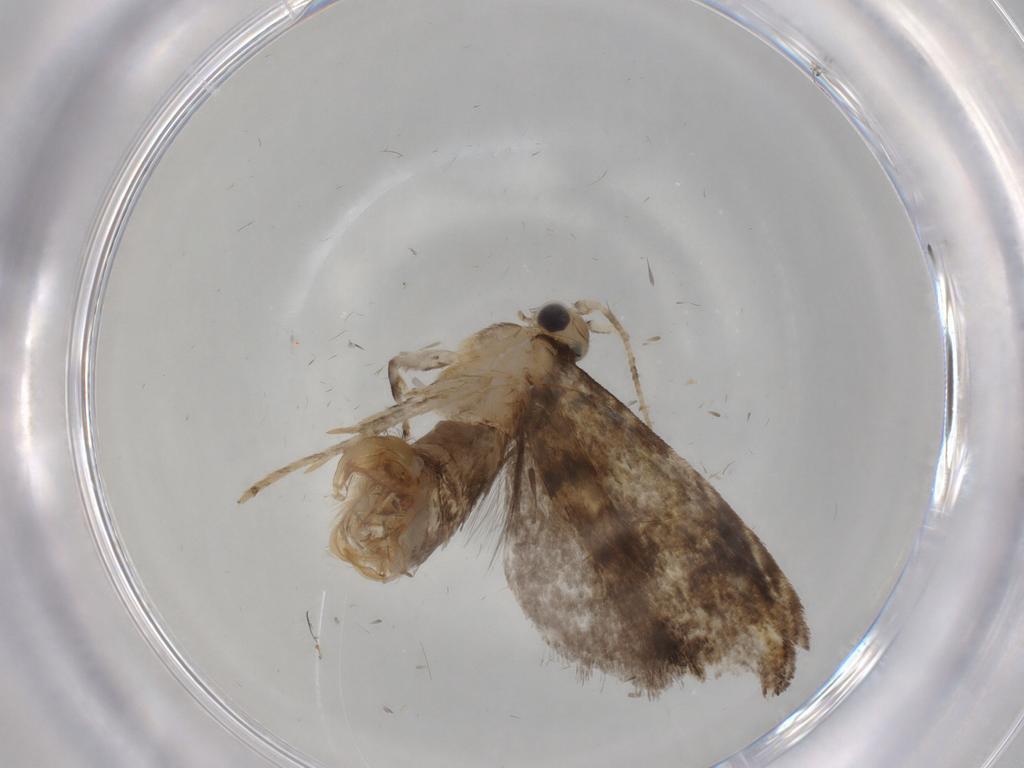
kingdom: Animalia
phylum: Arthropoda
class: Insecta
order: Lepidoptera
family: Tineidae
